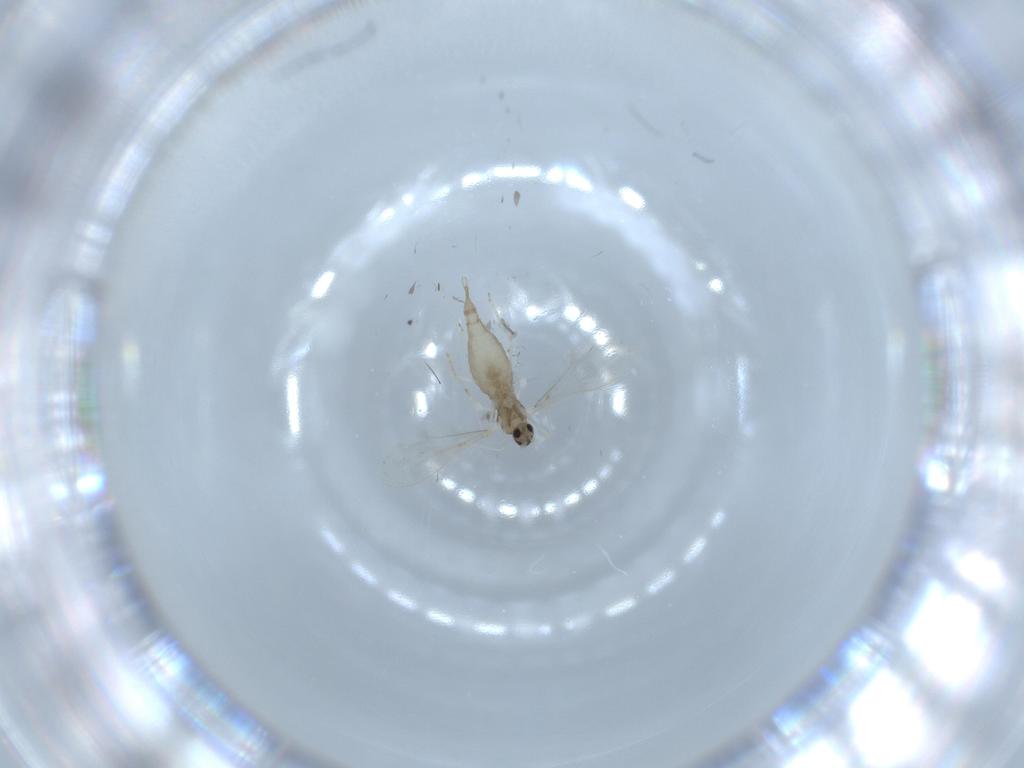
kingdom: Animalia
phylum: Arthropoda
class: Insecta
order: Diptera
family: Cecidomyiidae
